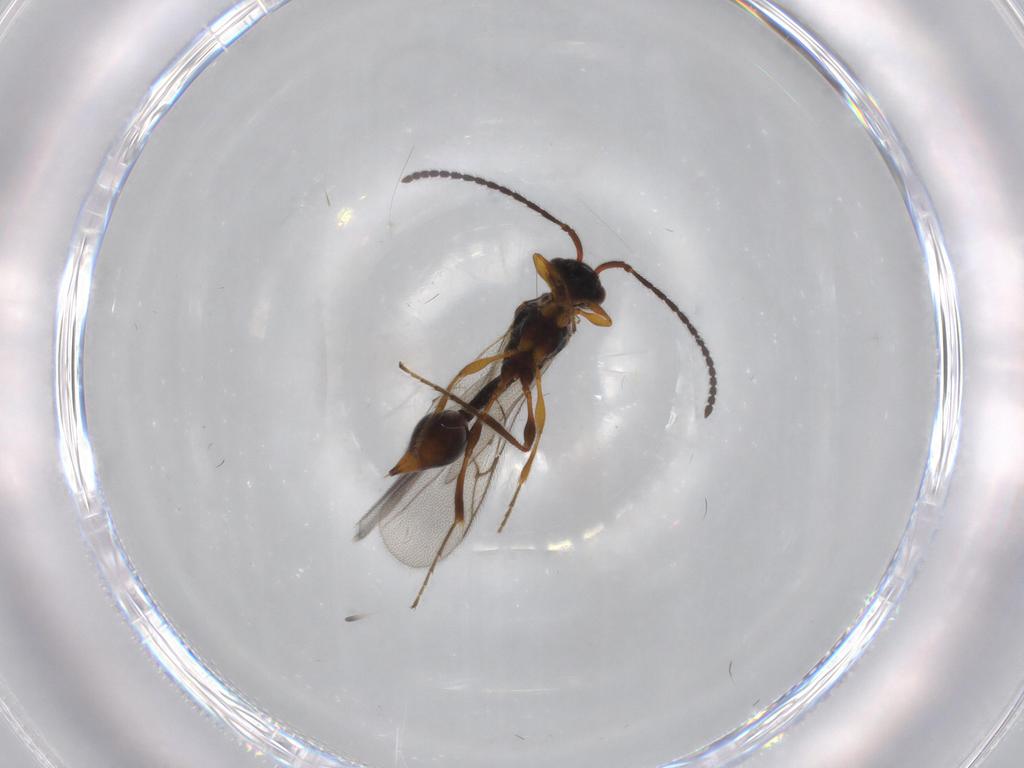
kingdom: Animalia
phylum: Arthropoda
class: Insecta
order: Hymenoptera
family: Diapriidae
